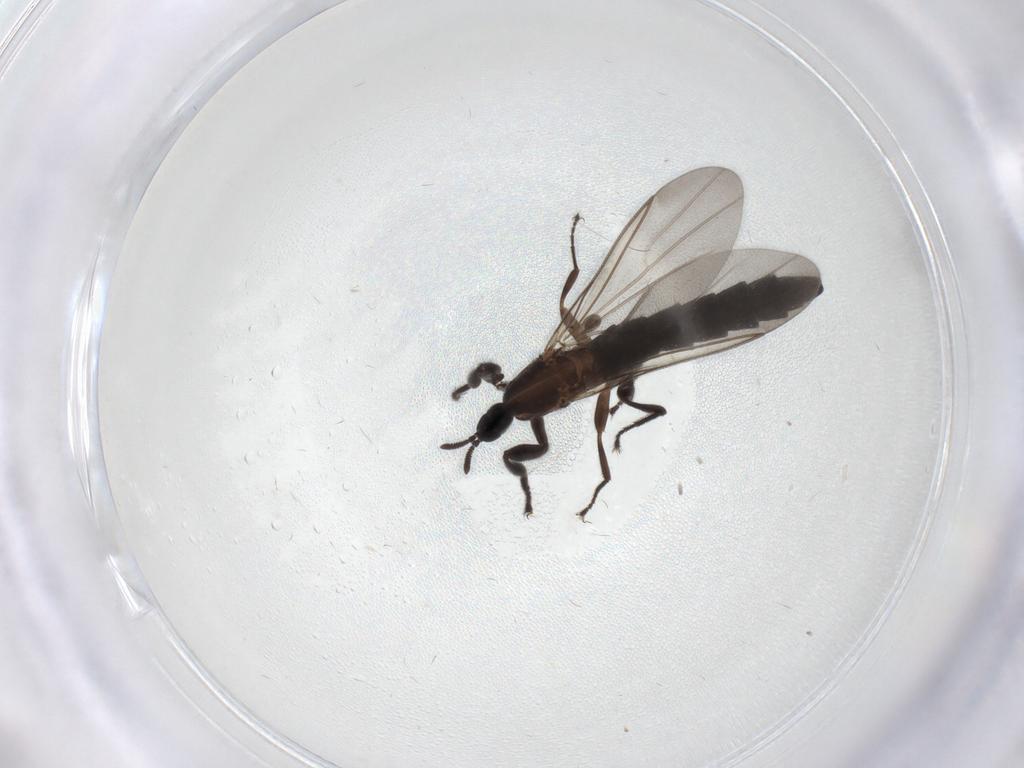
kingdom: Animalia
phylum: Arthropoda
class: Insecta
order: Diptera
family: Scatopsidae
